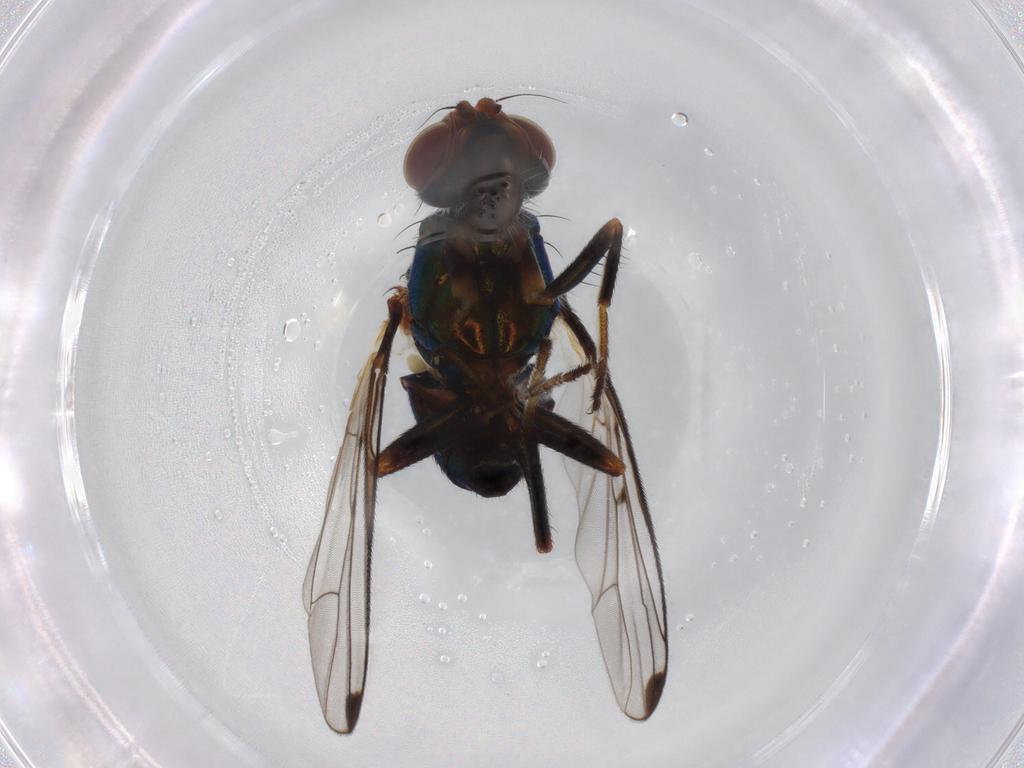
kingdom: Animalia
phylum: Arthropoda
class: Insecta
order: Diptera
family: Platystomatidae
